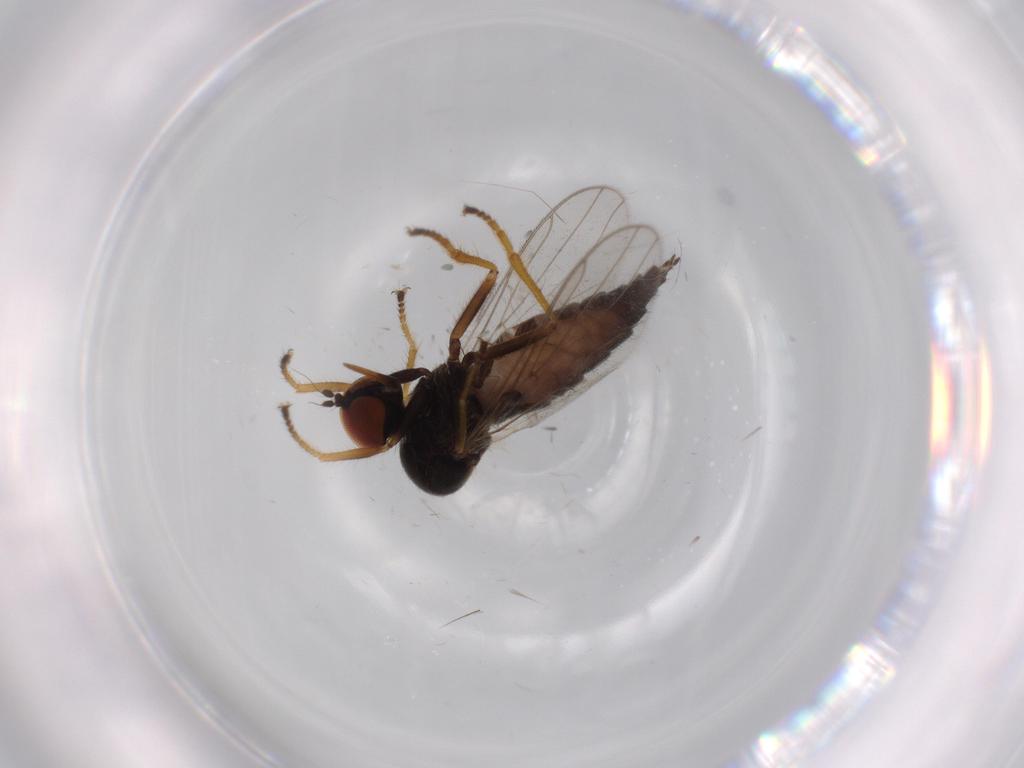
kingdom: Animalia
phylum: Arthropoda
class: Insecta
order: Diptera
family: Cecidomyiidae
